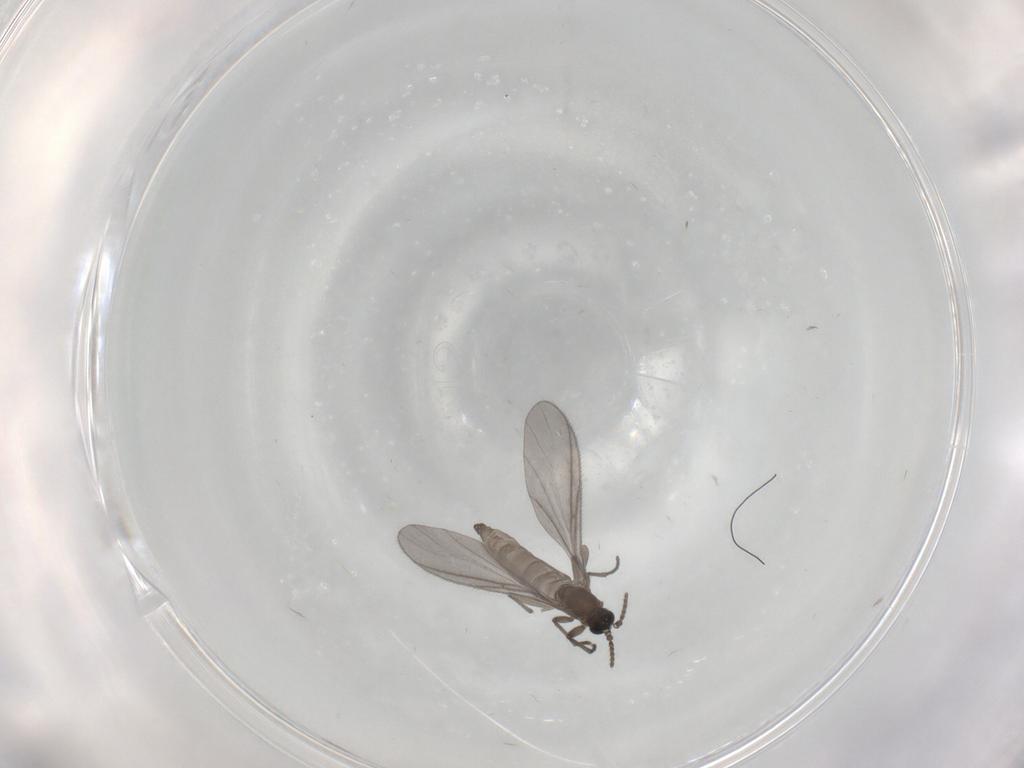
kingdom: Animalia
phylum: Arthropoda
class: Insecta
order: Diptera
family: Sciaridae
